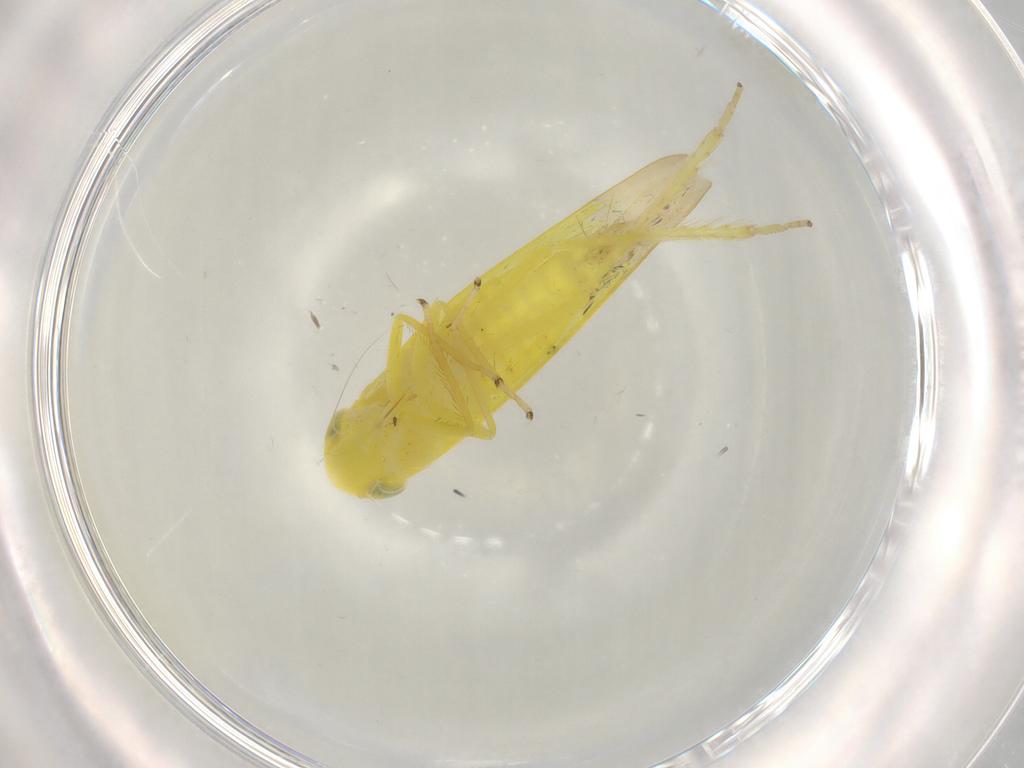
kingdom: Animalia
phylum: Arthropoda
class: Insecta
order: Hemiptera
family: Cicadellidae
